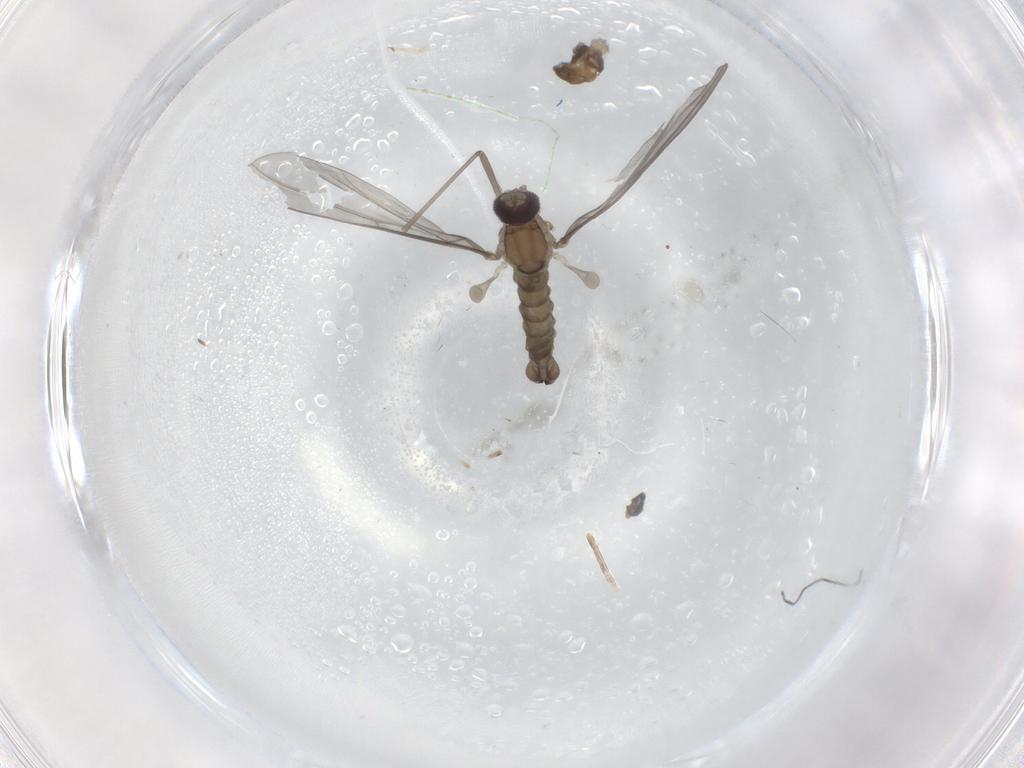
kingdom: Animalia
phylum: Arthropoda
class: Insecta
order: Diptera
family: Cecidomyiidae
